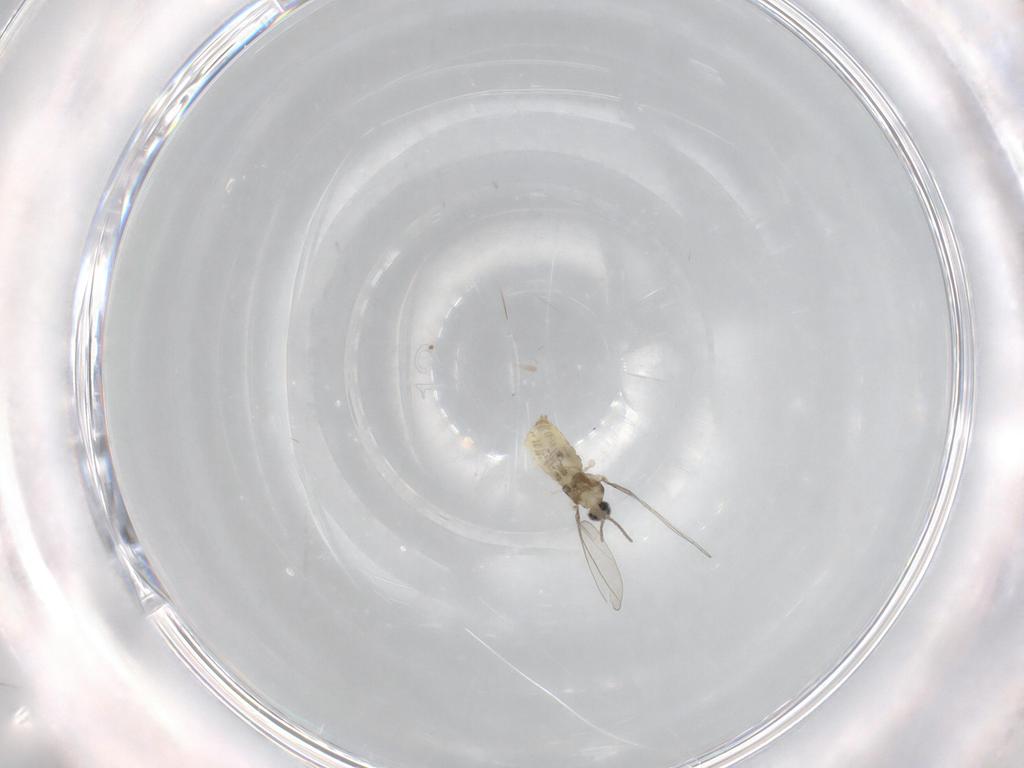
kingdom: Animalia
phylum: Arthropoda
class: Insecta
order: Diptera
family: Cecidomyiidae
